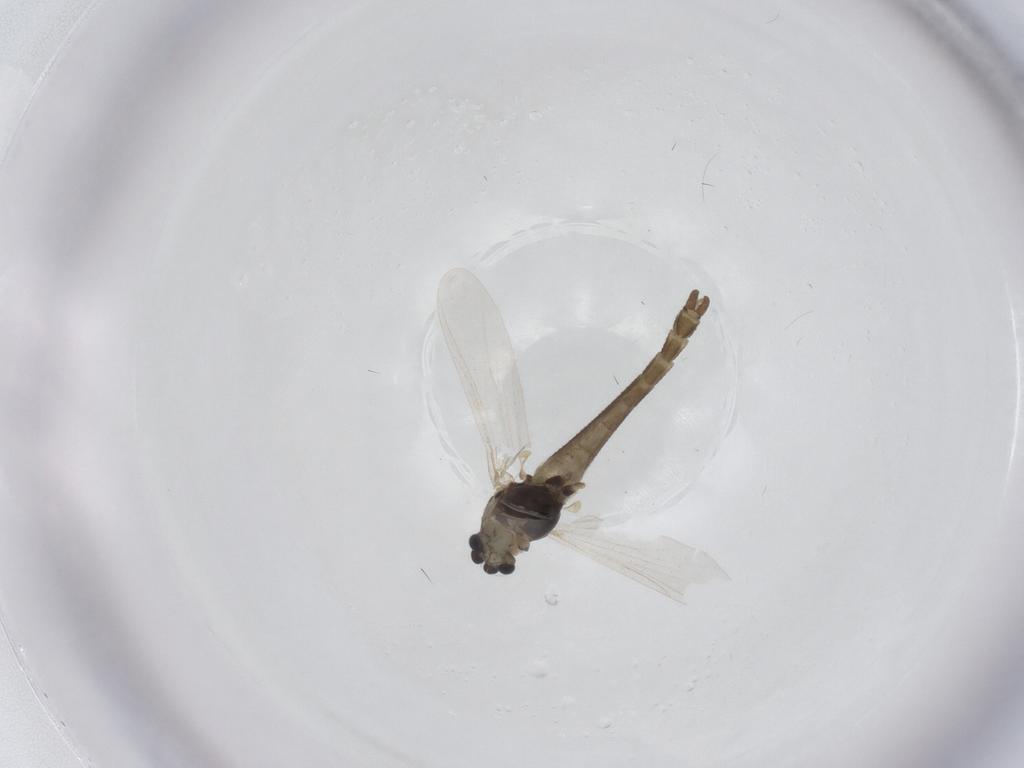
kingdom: Animalia
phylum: Arthropoda
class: Insecta
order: Diptera
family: Chironomidae
